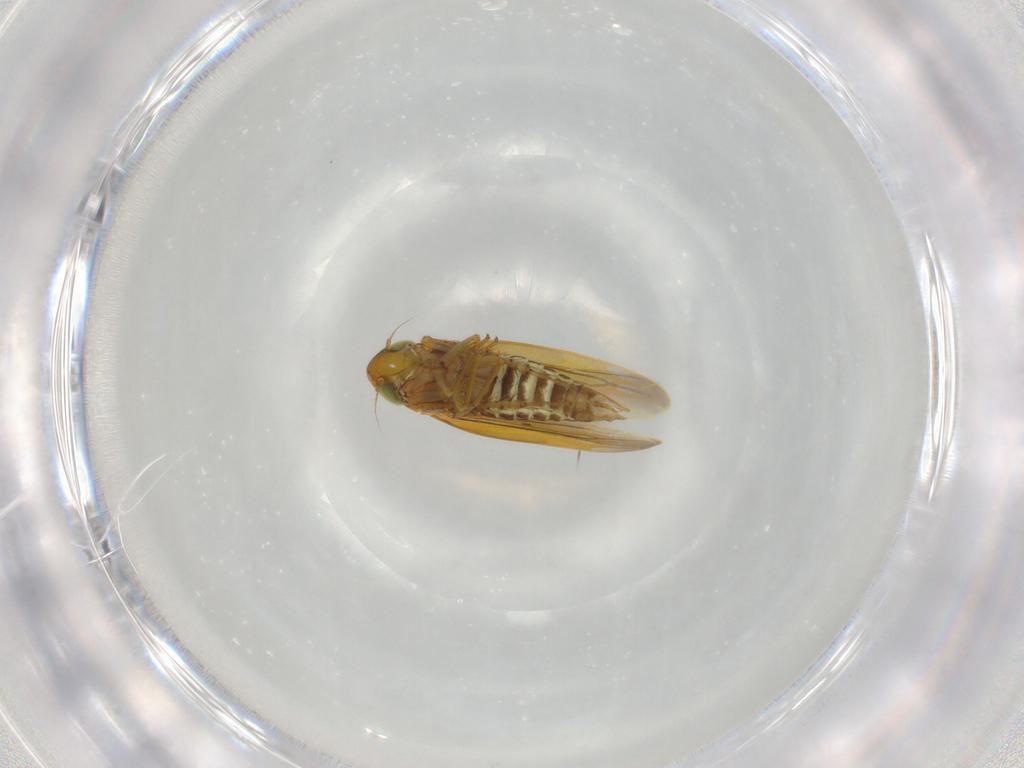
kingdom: Animalia
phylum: Arthropoda
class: Insecta
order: Hemiptera
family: Cicadellidae
